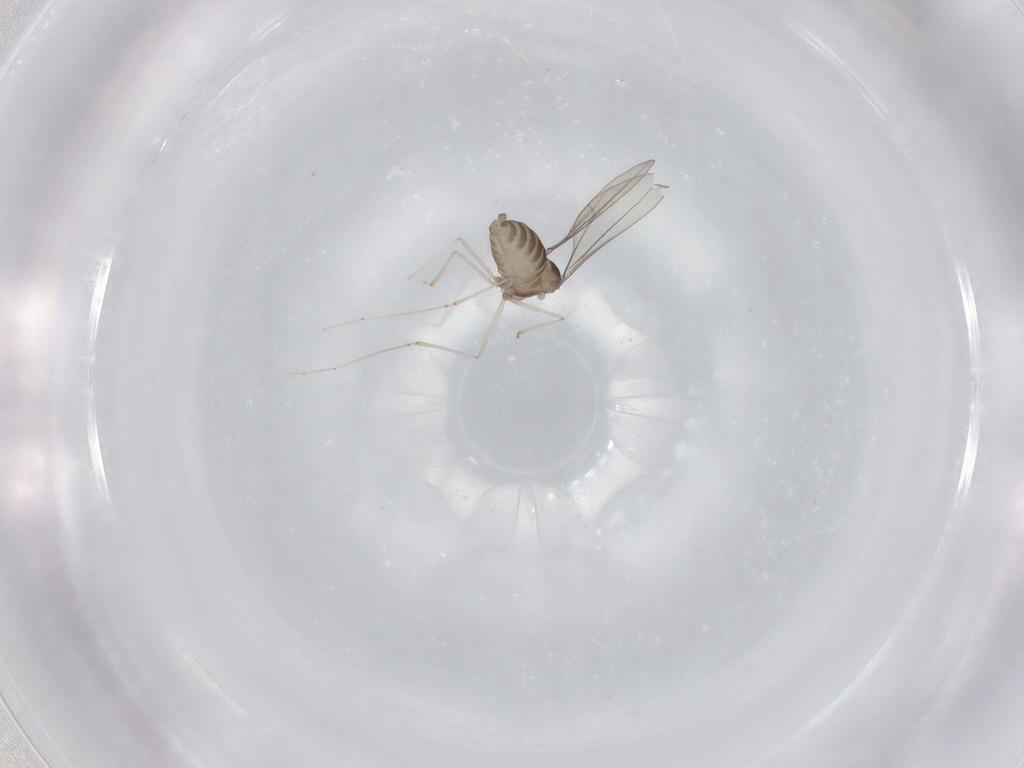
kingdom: Animalia
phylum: Arthropoda
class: Insecta
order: Diptera
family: Cecidomyiidae
